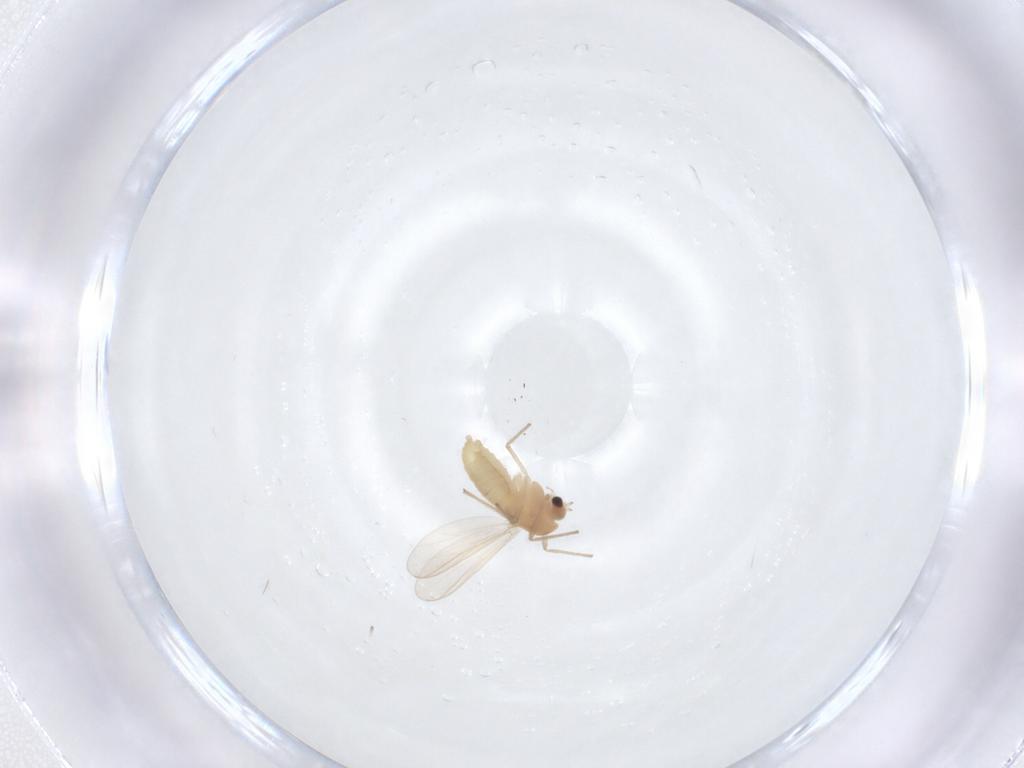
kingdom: Animalia
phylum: Arthropoda
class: Insecta
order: Diptera
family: Chironomidae
